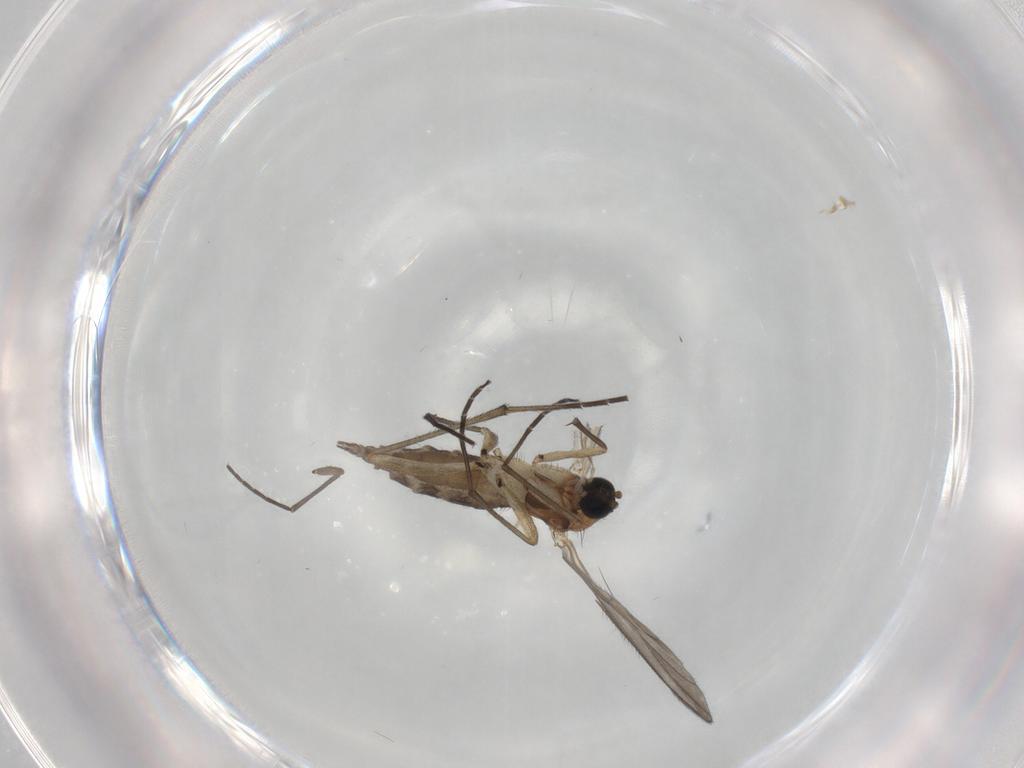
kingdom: Animalia
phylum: Arthropoda
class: Insecta
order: Diptera
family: Sciaridae
